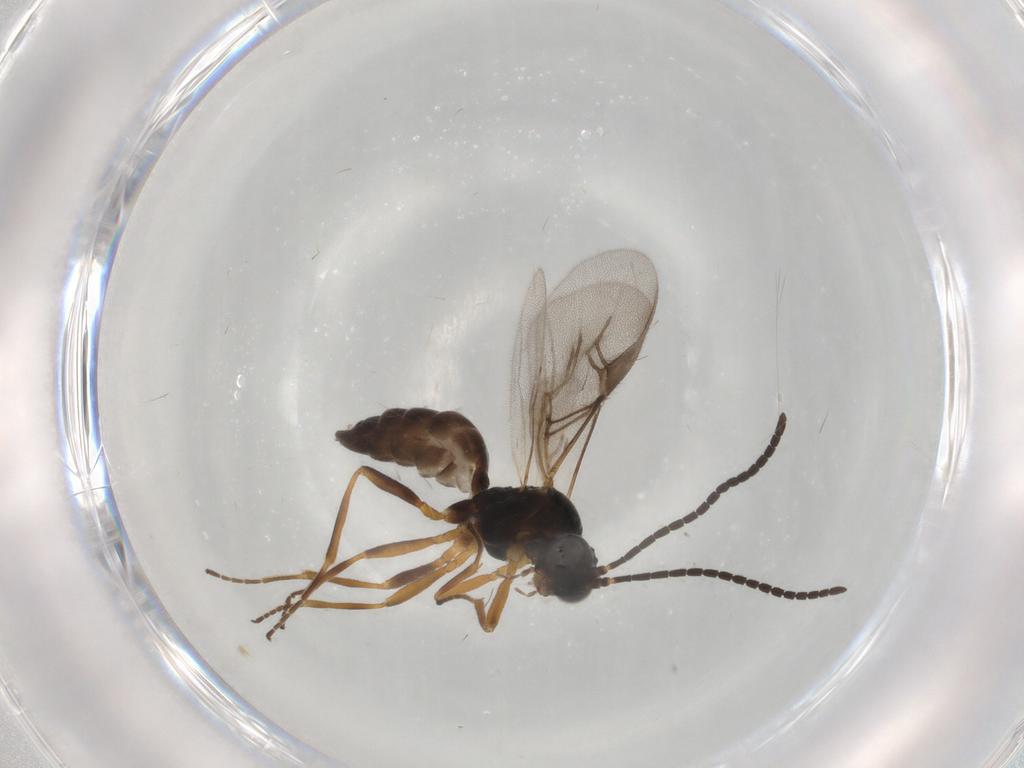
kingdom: Animalia
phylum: Arthropoda
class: Insecta
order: Hymenoptera
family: Braconidae
